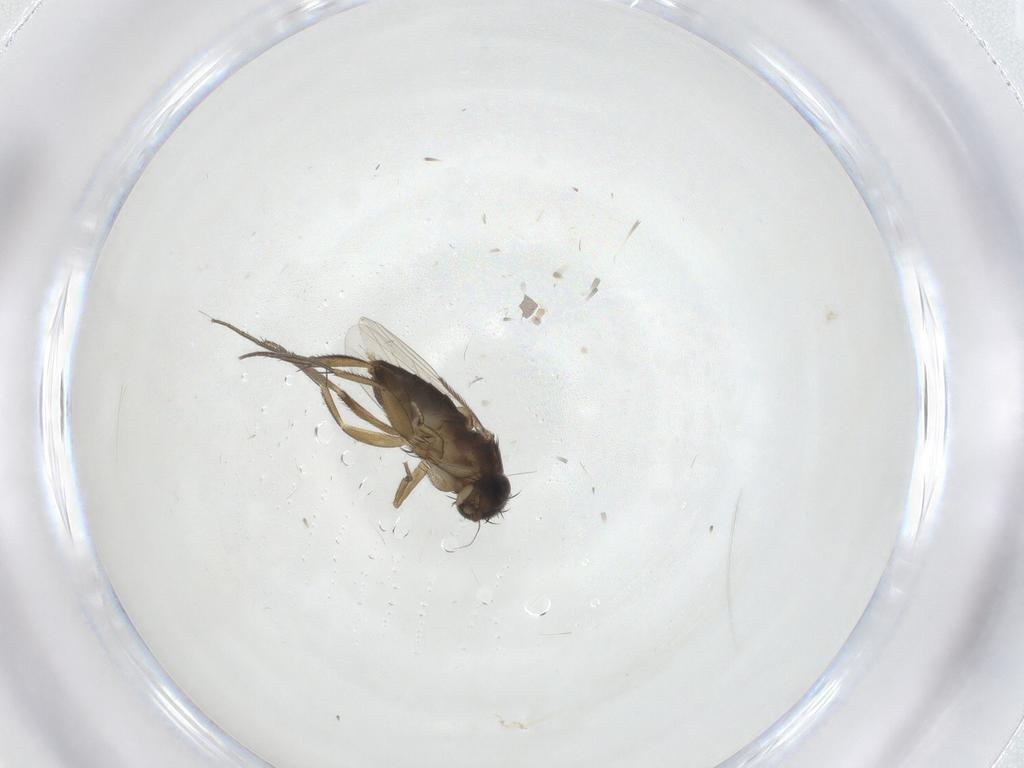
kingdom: Animalia
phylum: Arthropoda
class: Insecta
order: Diptera
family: Phoridae
